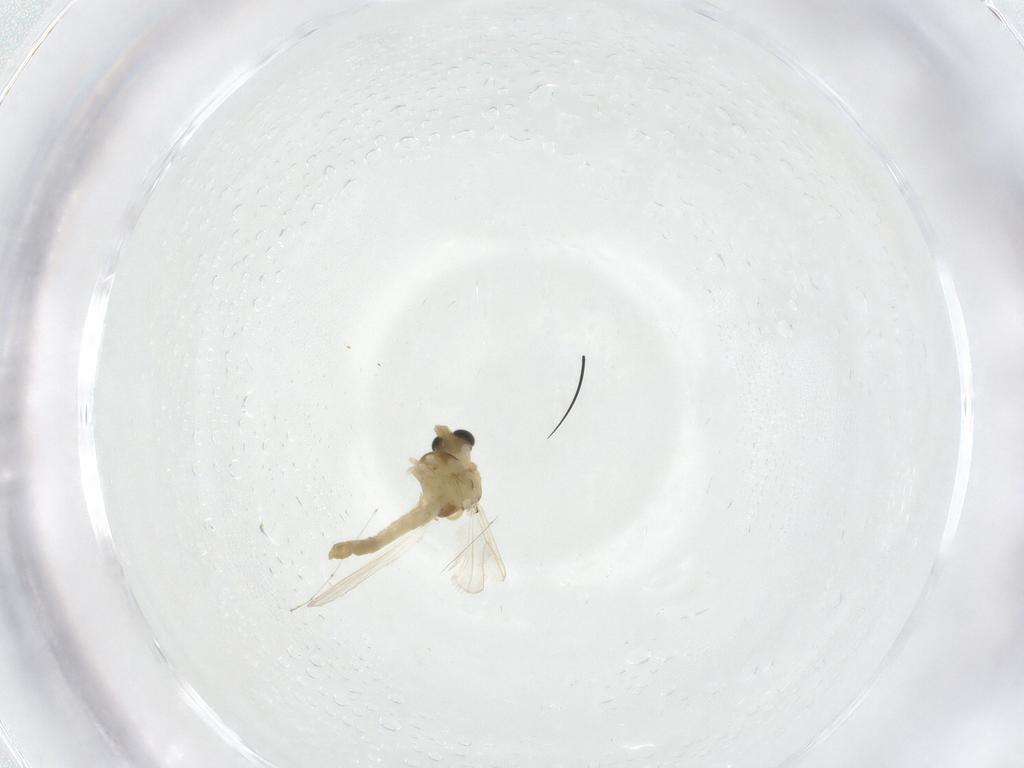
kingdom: Animalia
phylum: Arthropoda
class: Insecta
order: Diptera
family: Chironomidae
